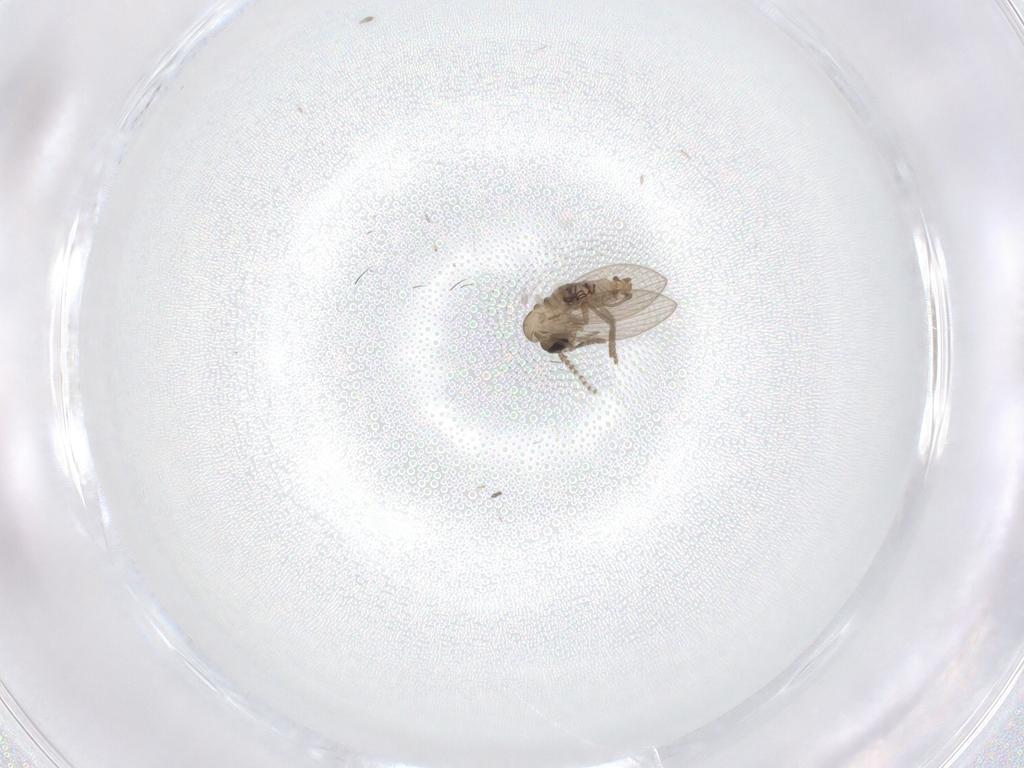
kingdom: Animalia
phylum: Arthropoda
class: Insecta
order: Diptera
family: Psychodidae
